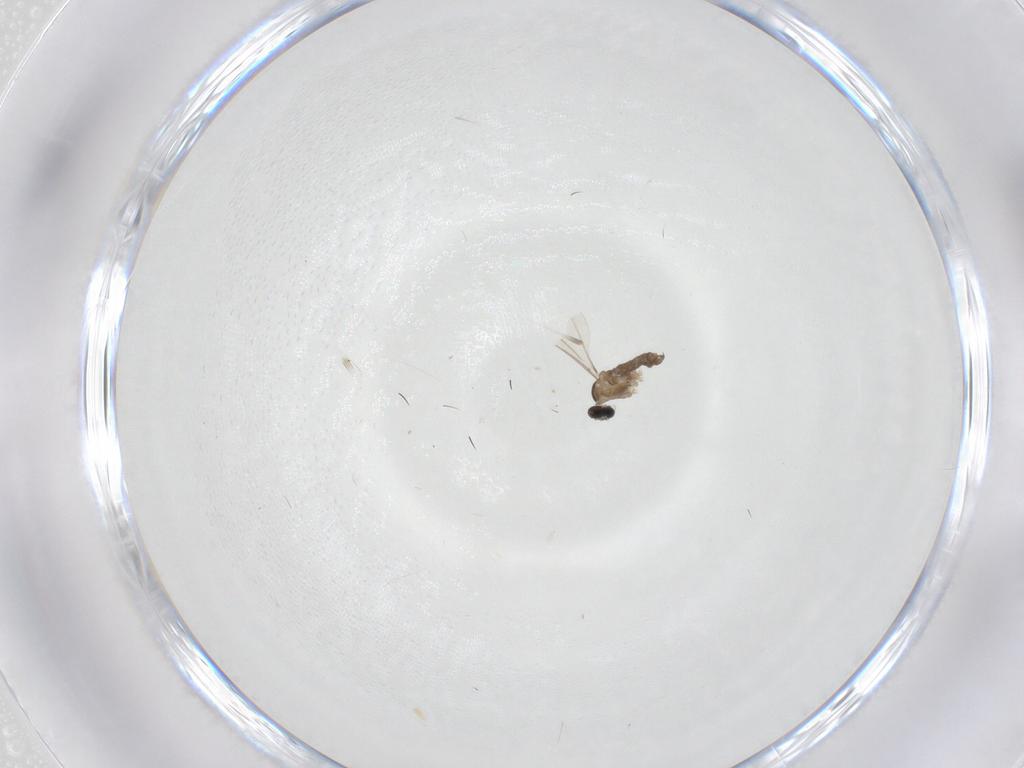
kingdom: Animalia
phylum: Arthropoda
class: Insecta
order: Diptera
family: Cecidomyiidae
